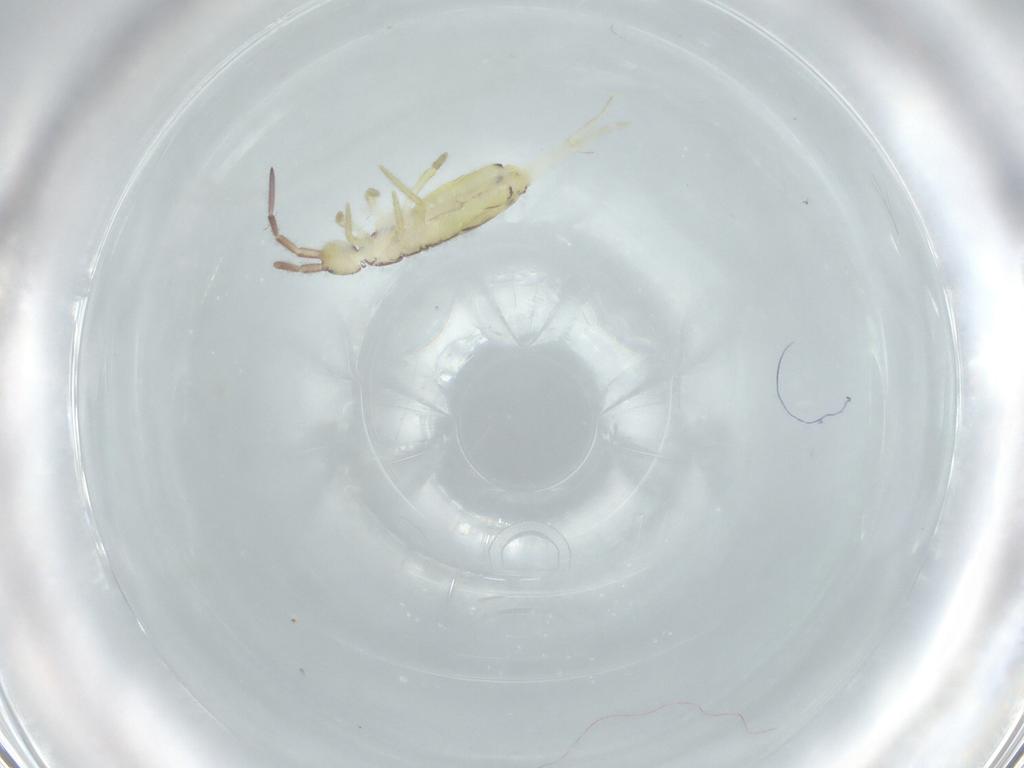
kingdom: Animalia
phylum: Arthropoda
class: Collembola
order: Entomobryomorpha
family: Entomobryidae
